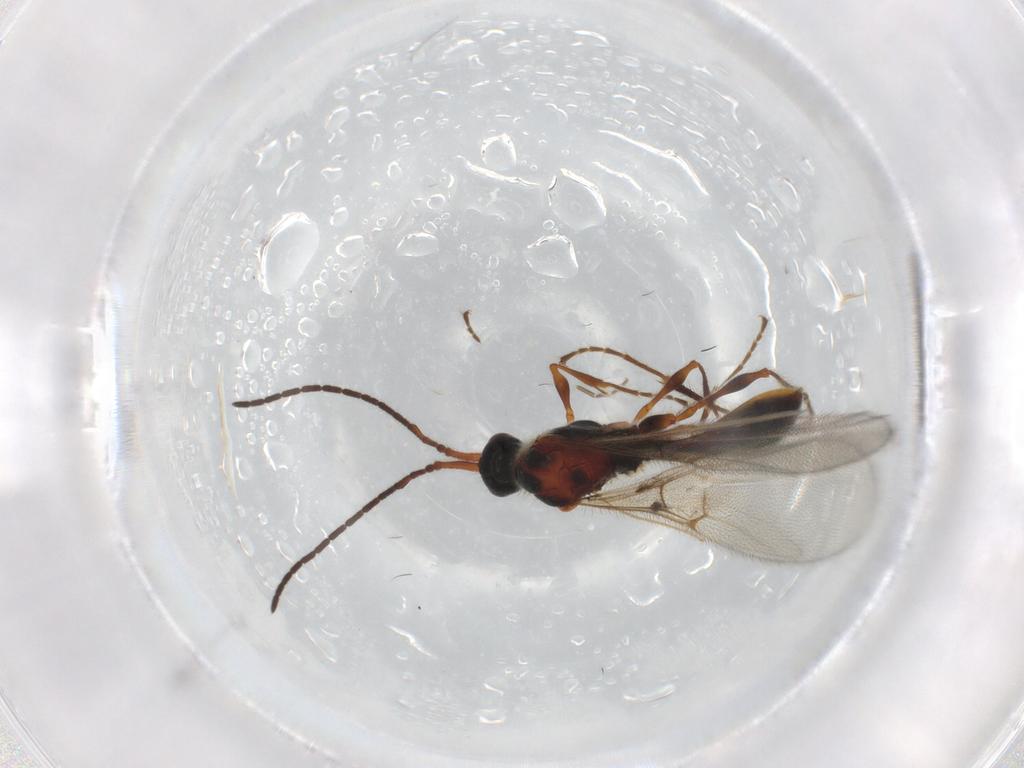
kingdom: Animalia
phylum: Arthropoda
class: Insecta
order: Hymenoptera
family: Diapriidae
